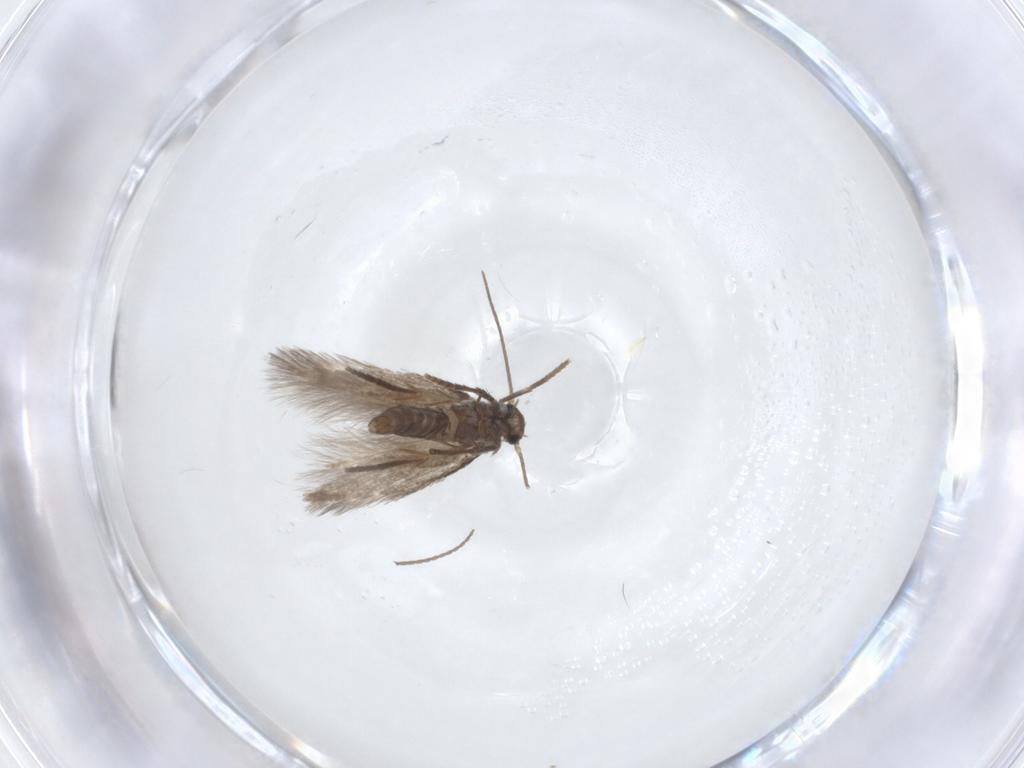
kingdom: Animalia
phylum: Arthropoda
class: Insecta
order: Lepidoptera
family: Heliozelidae
